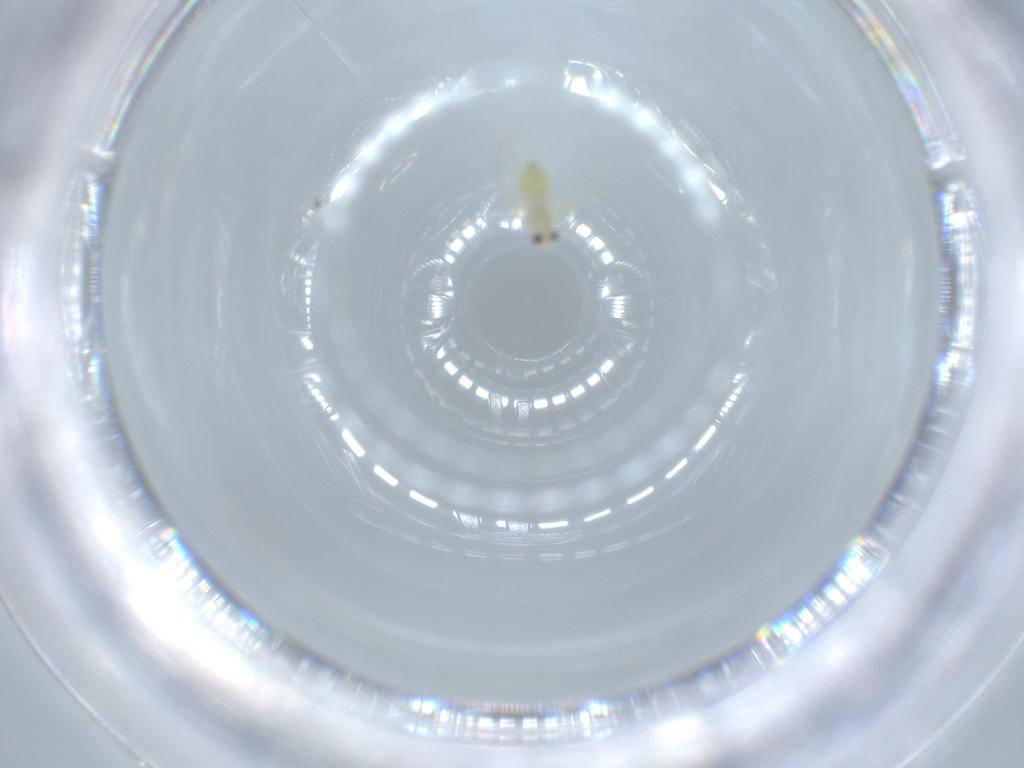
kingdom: Animalia
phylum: Arthropoda
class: Insecta
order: Hemiptera
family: Aleyrodidae
